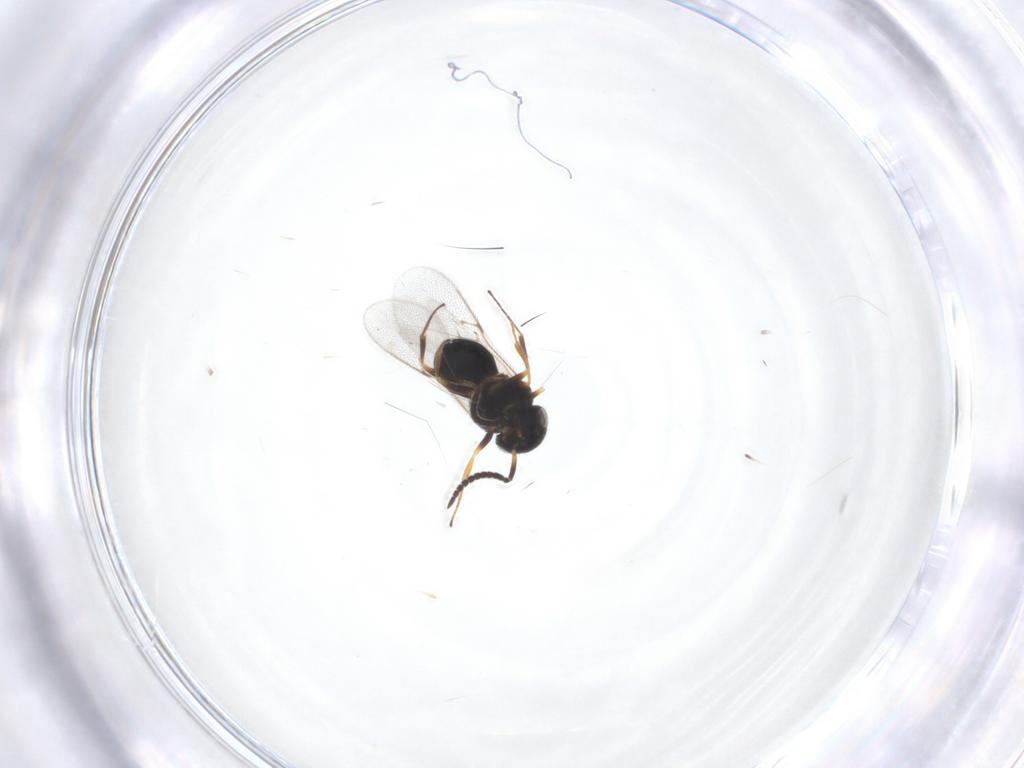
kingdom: Animalia
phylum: Arthropoda
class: Insecta
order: Hymenoptera
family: Scelionidae
